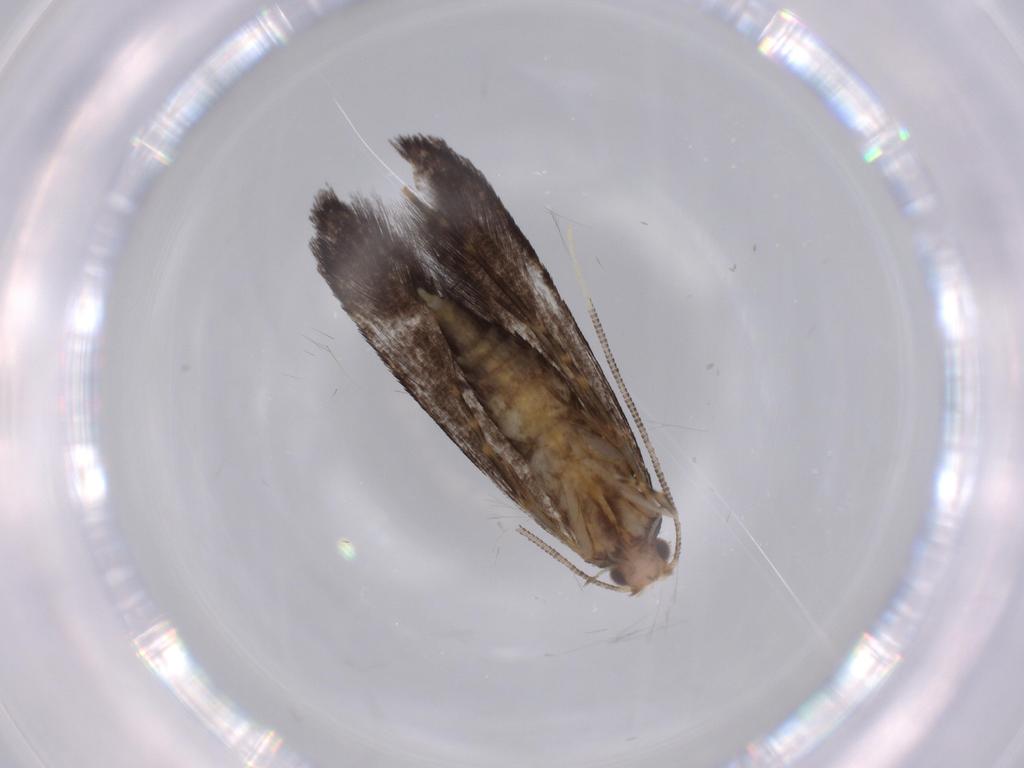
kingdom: Animalia
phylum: Arthropoda
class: Insecta
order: Lepidoptera
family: Tineidae
